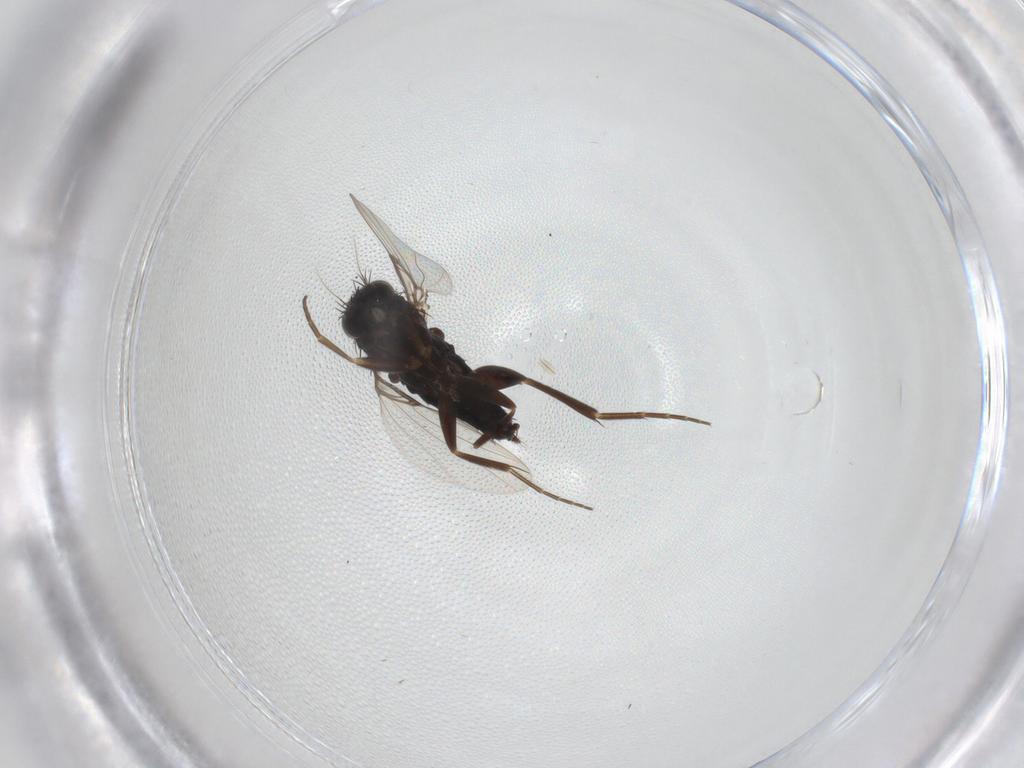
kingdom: Animalia
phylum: Arthropoda
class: Insecta
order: Diptera
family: Phoridae
